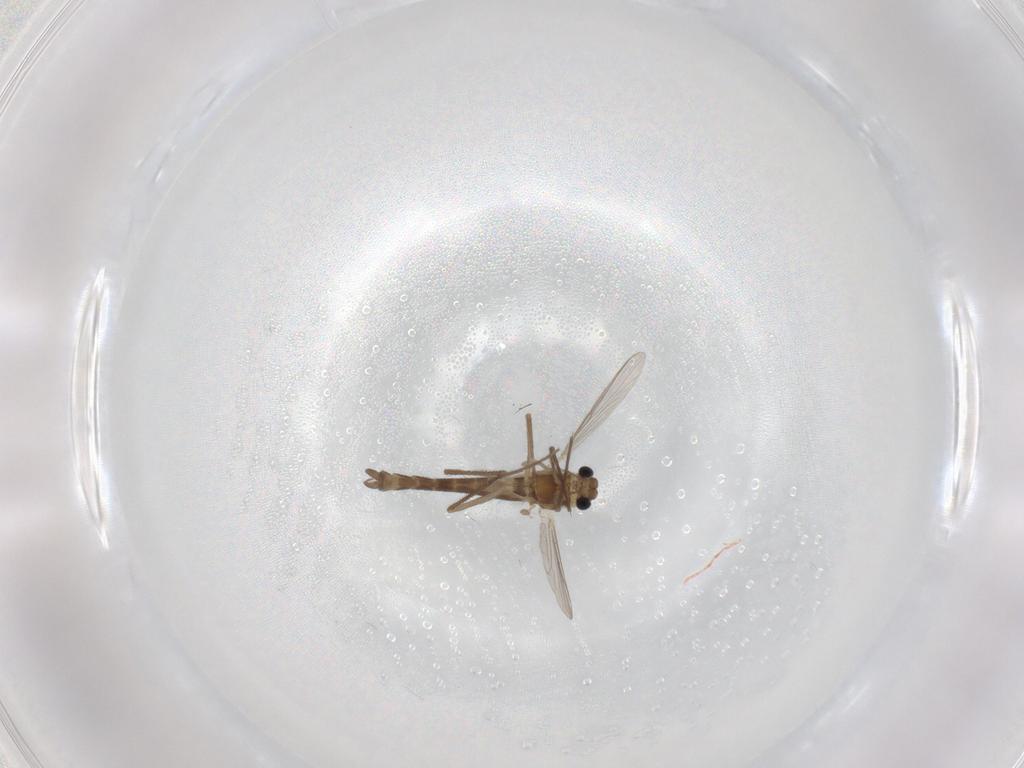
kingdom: Animalia
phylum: Arthropoda
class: Insecta
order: Diptera
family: Chironomidae
